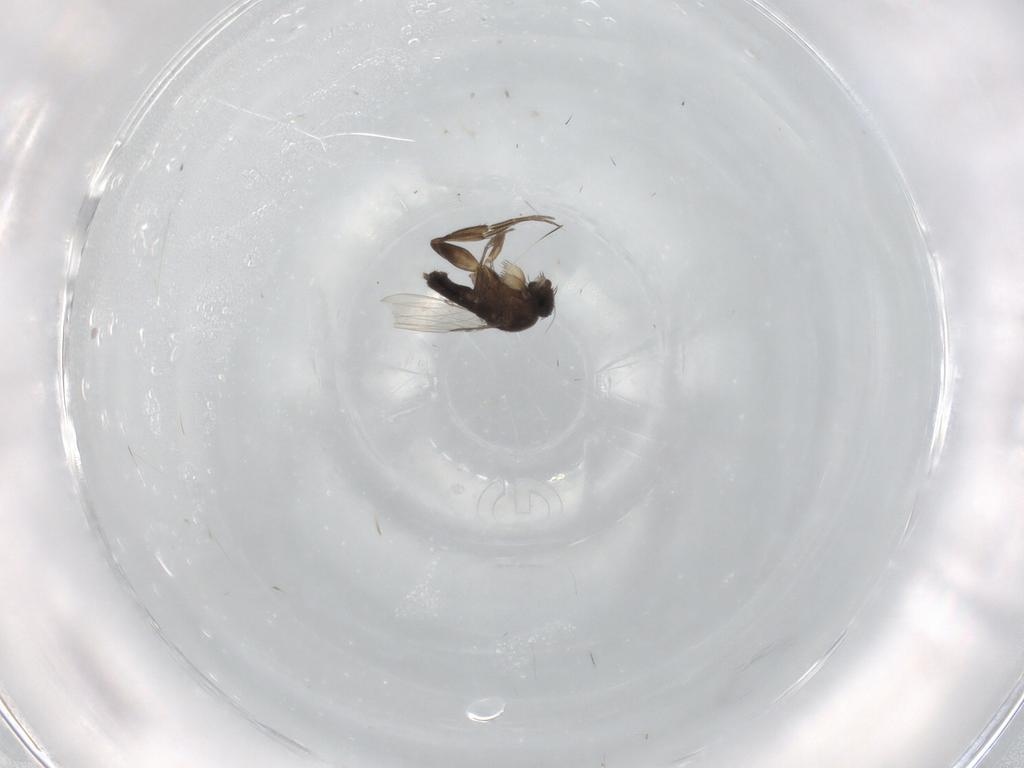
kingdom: Animalia
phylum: Arthropoda
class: Insecta
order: Diptera
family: Phoridae
